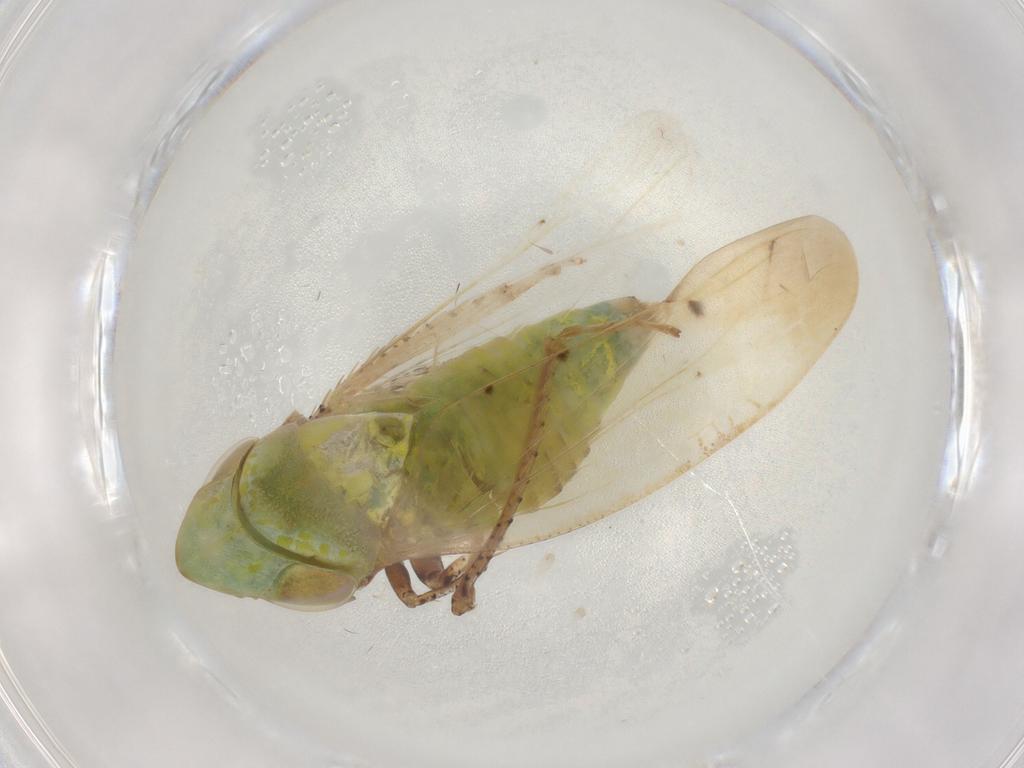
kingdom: Animalia
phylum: Arthropoda
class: Insecta
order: Hemiptera
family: Cicadellidae
